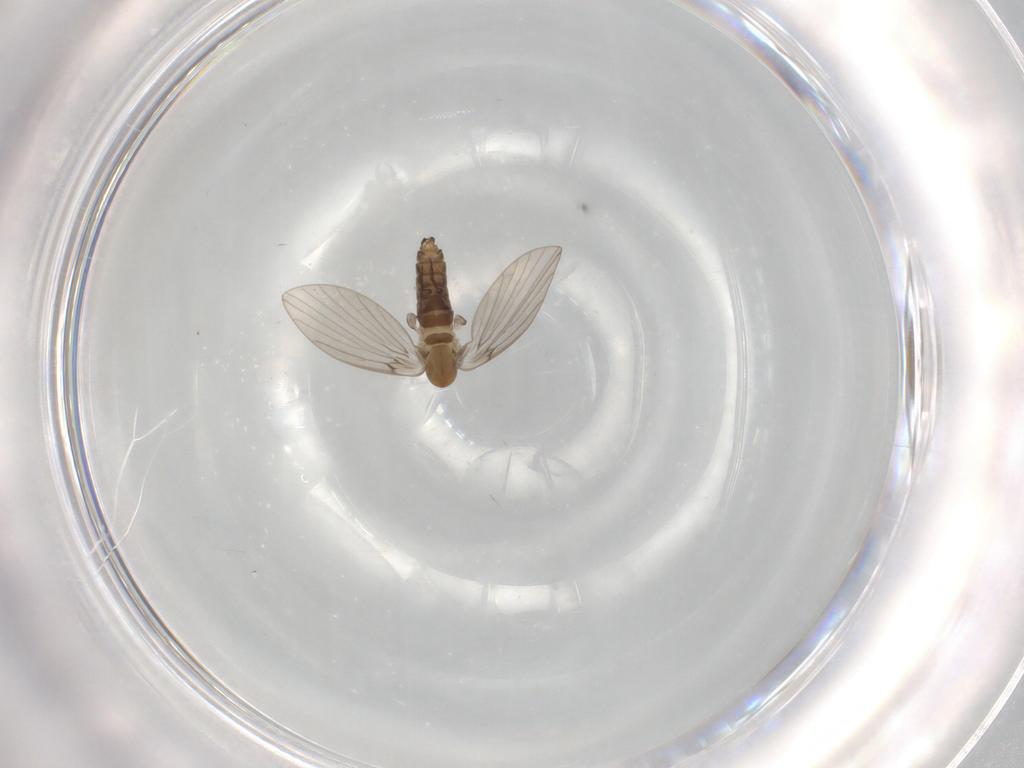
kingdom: Animalia
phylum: Arthropoda
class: Insecta
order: Diptera
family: Psychodidae
